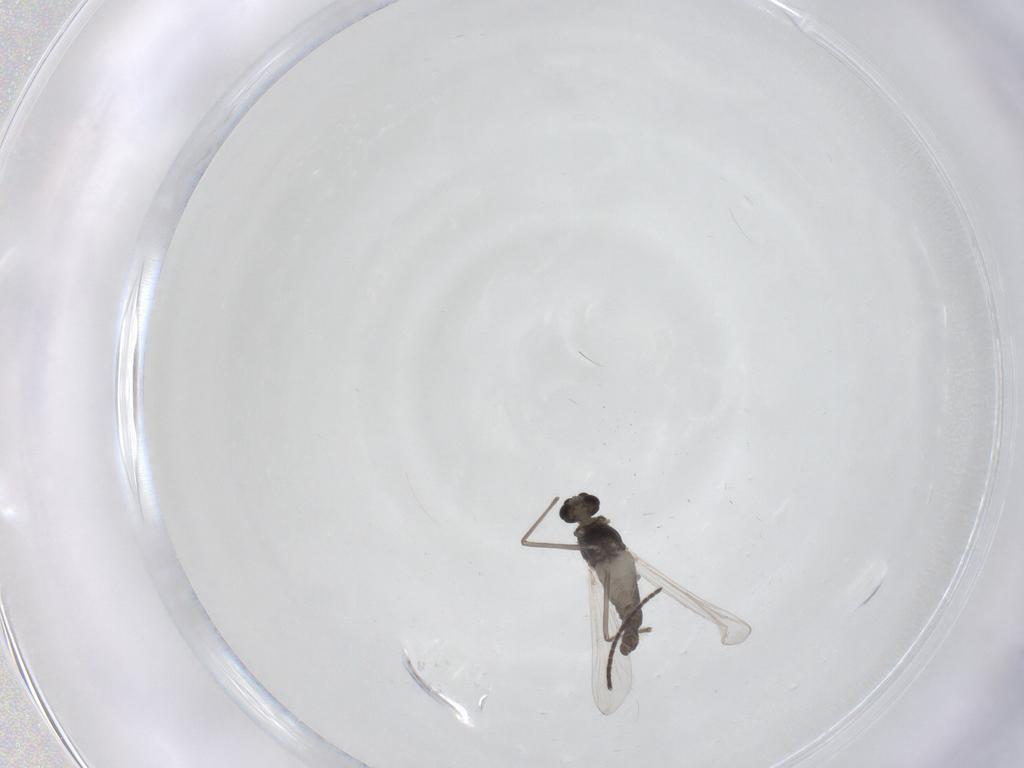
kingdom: Animalia
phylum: Arthropoda
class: Insecta
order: Diptera
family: Chironomidae
